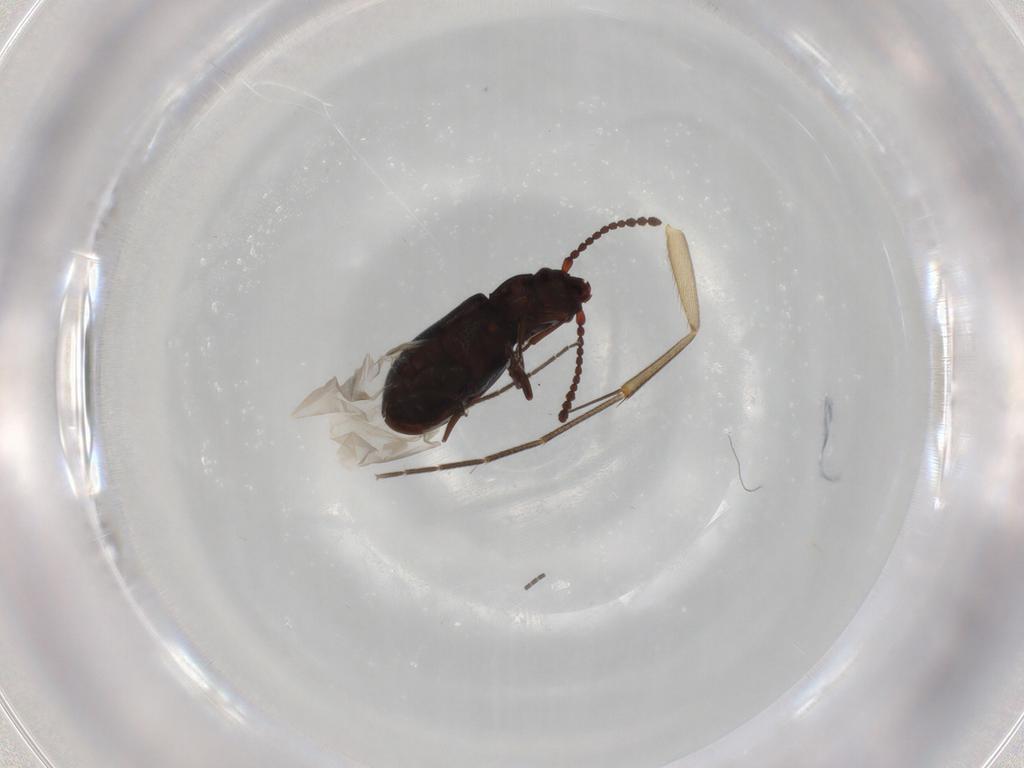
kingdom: Animalia
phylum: Arthropoda
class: Insecta
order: Coleoptera
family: Laemophloeidae
